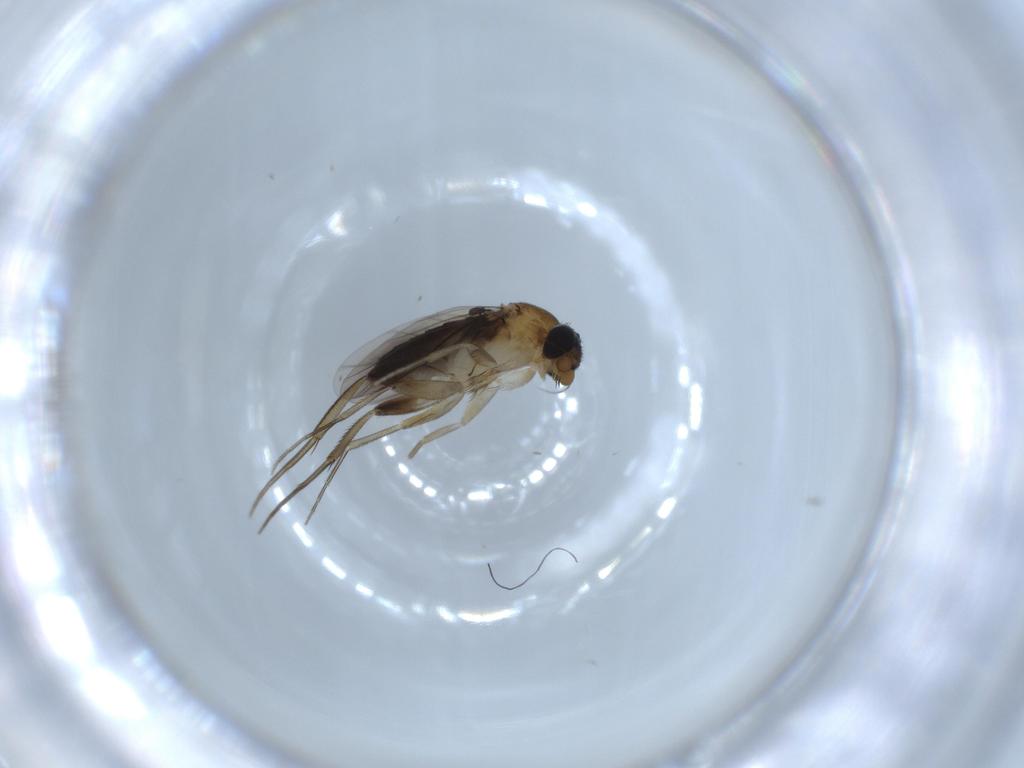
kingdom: Animalia
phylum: Arthropoda
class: Insecta
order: Diptera
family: Phoridae
